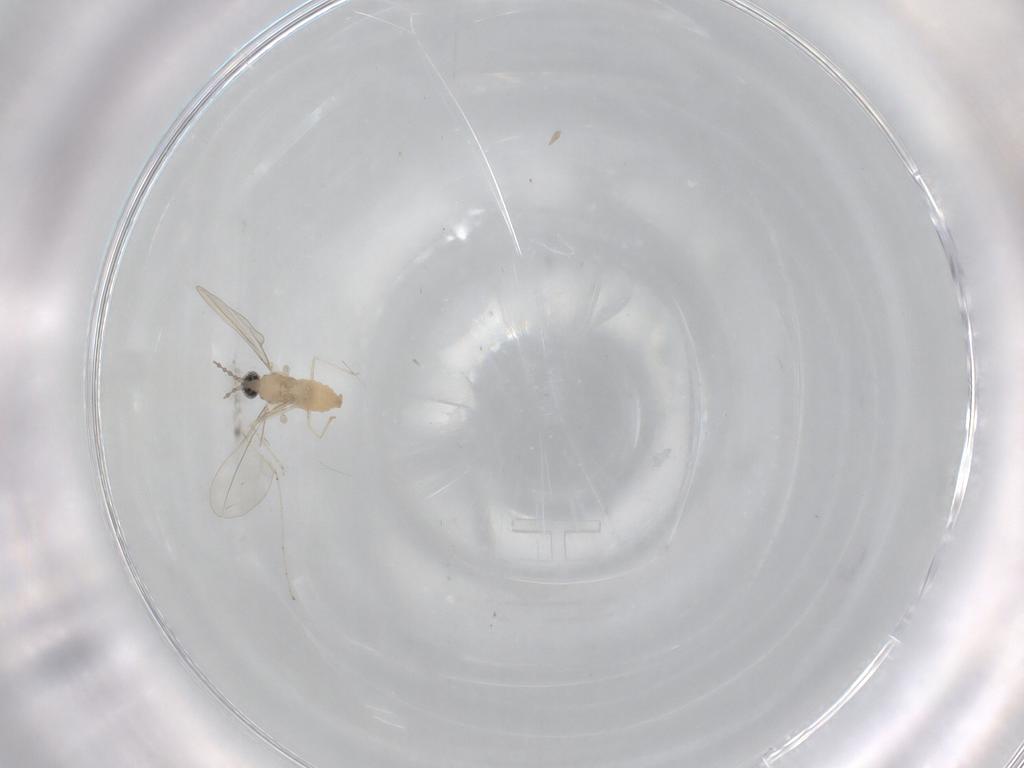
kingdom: Animalia
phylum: Arthropoda
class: Insecta
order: Diptera
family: Cecidomyiidae
